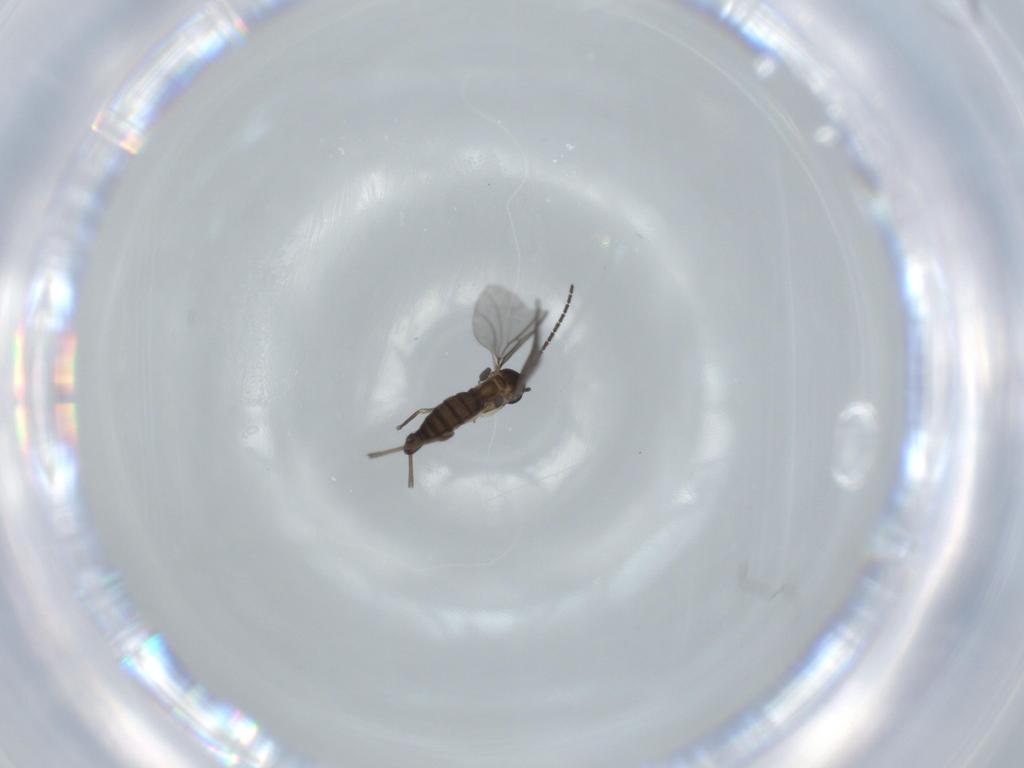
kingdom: Animalia
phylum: Arthropoda
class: Insecta
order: Diptera
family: Sciaridae
